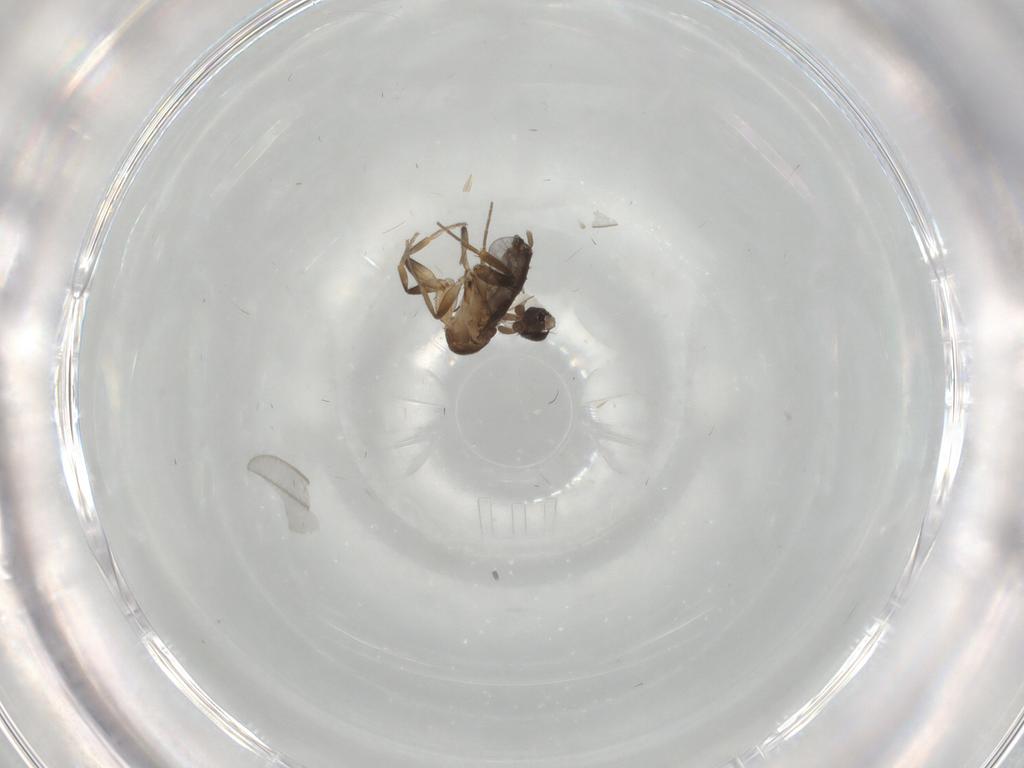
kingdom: Animalia
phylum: Arthropoda
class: Insecta
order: Diptera
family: Phoridae
